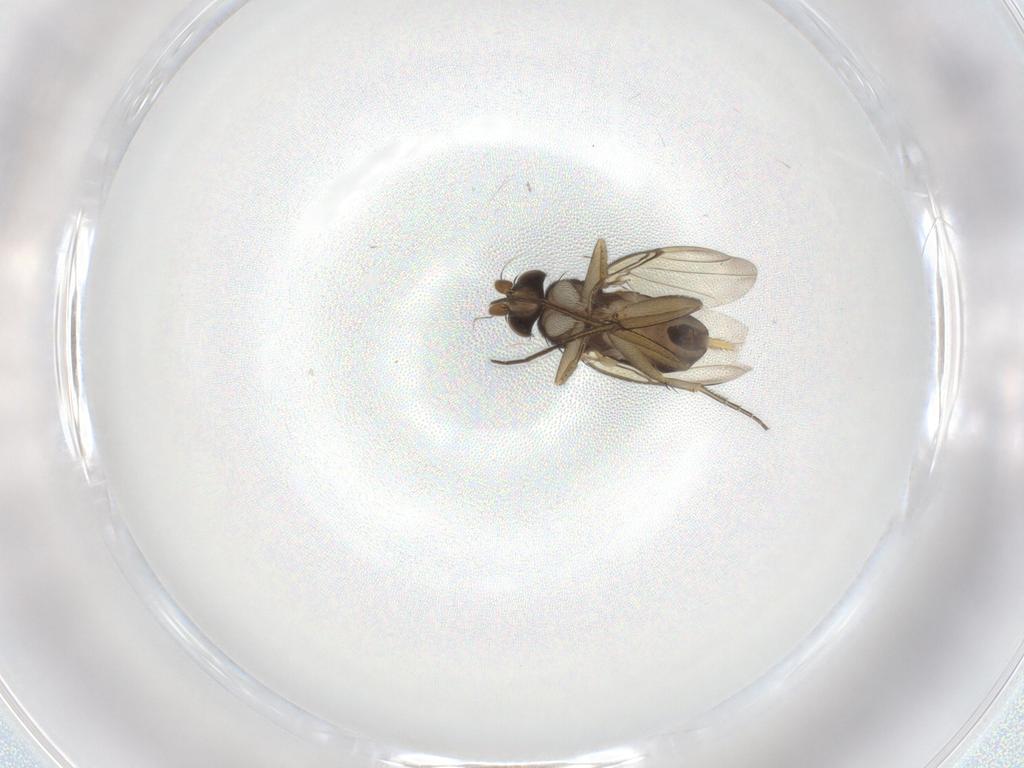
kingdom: Animalia
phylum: Arthropoda
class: Insecta
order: Diptera
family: Phoridae
